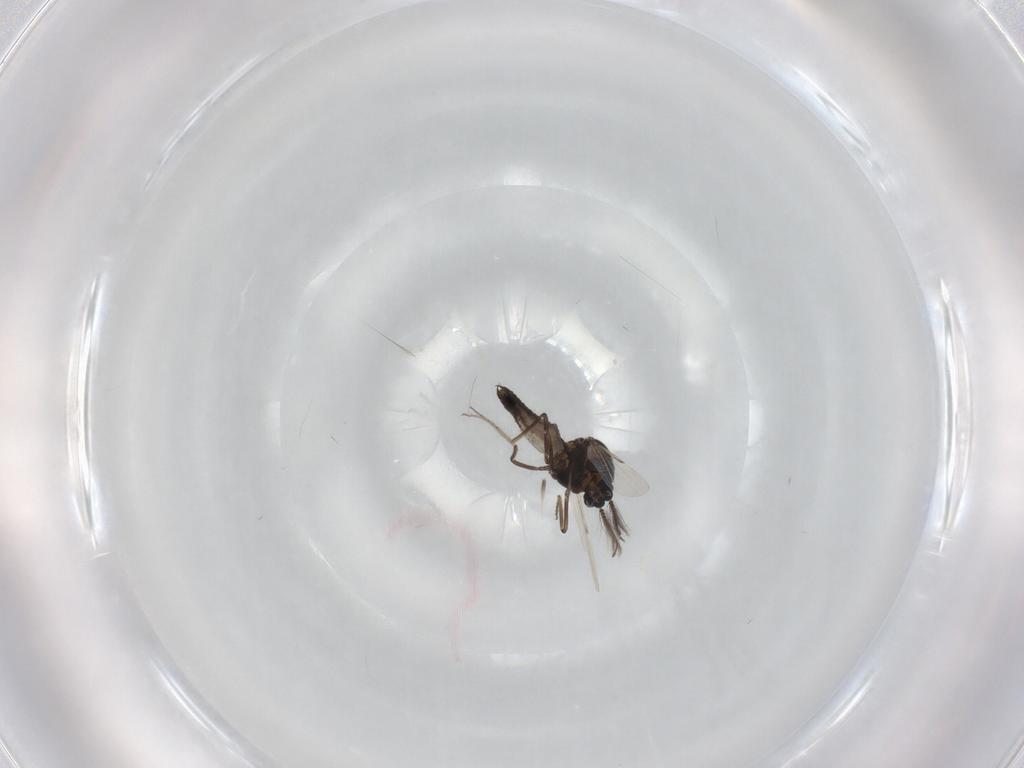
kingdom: Animalia
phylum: Arthropoda
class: Insecta
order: Diptera
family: Ceratopogonidae
